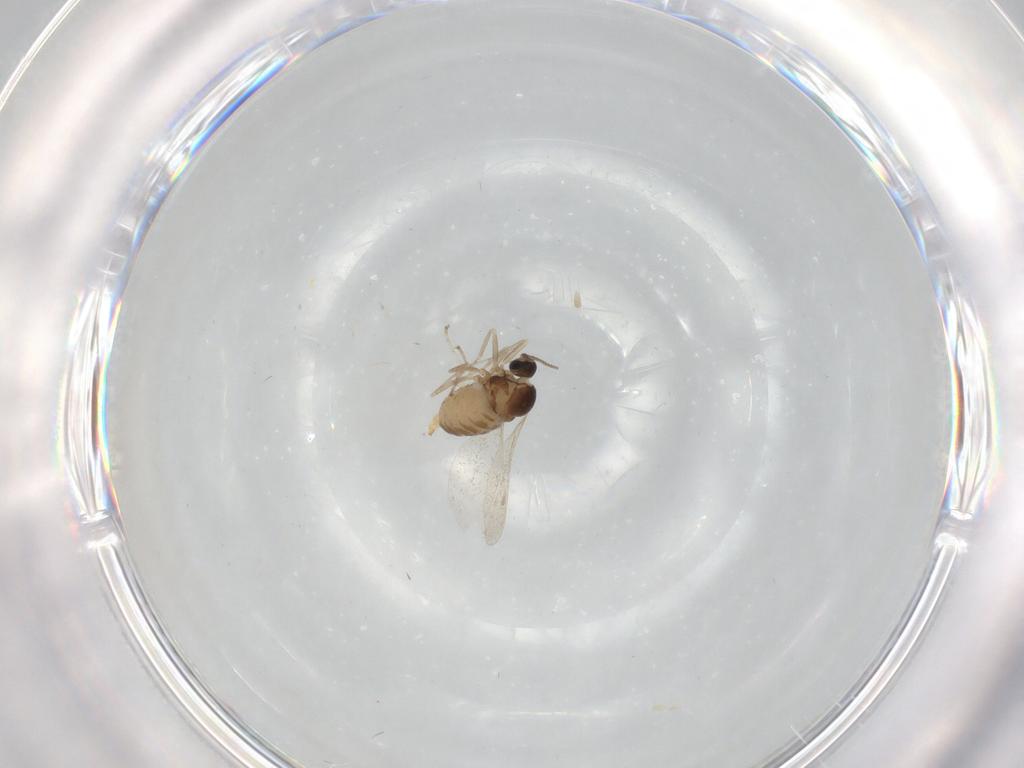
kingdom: Animalia
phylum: Arthropoda
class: Insecta
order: Diptera
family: Cecidomyiidae
